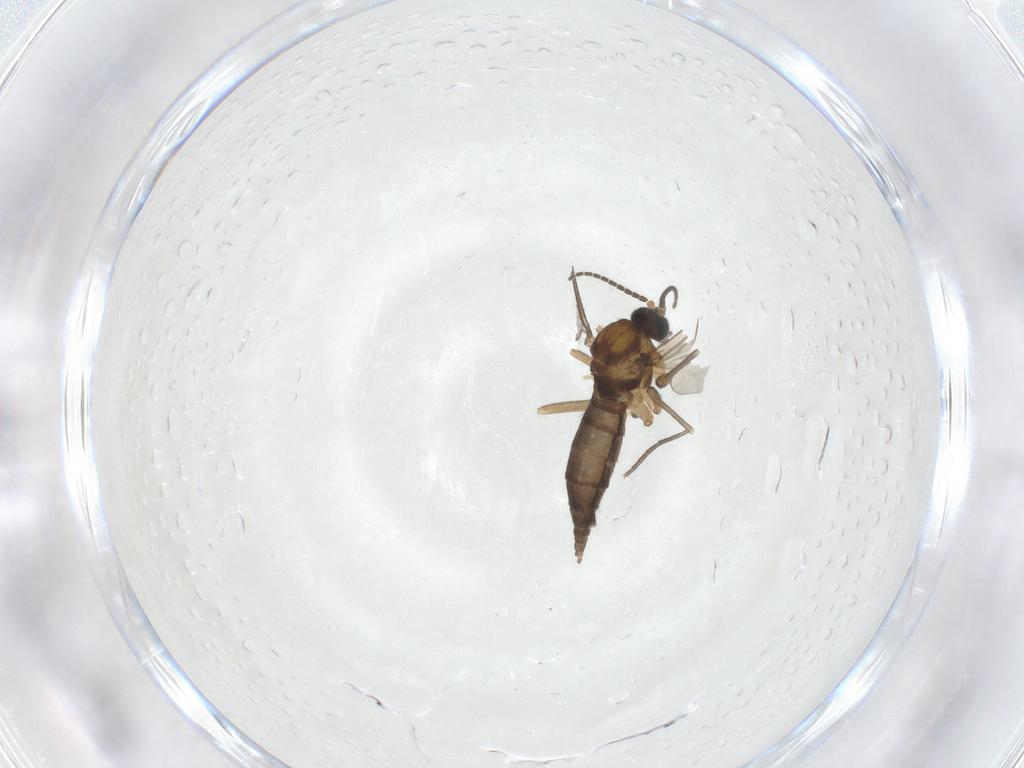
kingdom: Animalia
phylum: Arthropoda
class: Insecta
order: Diptera
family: Sciaridae
